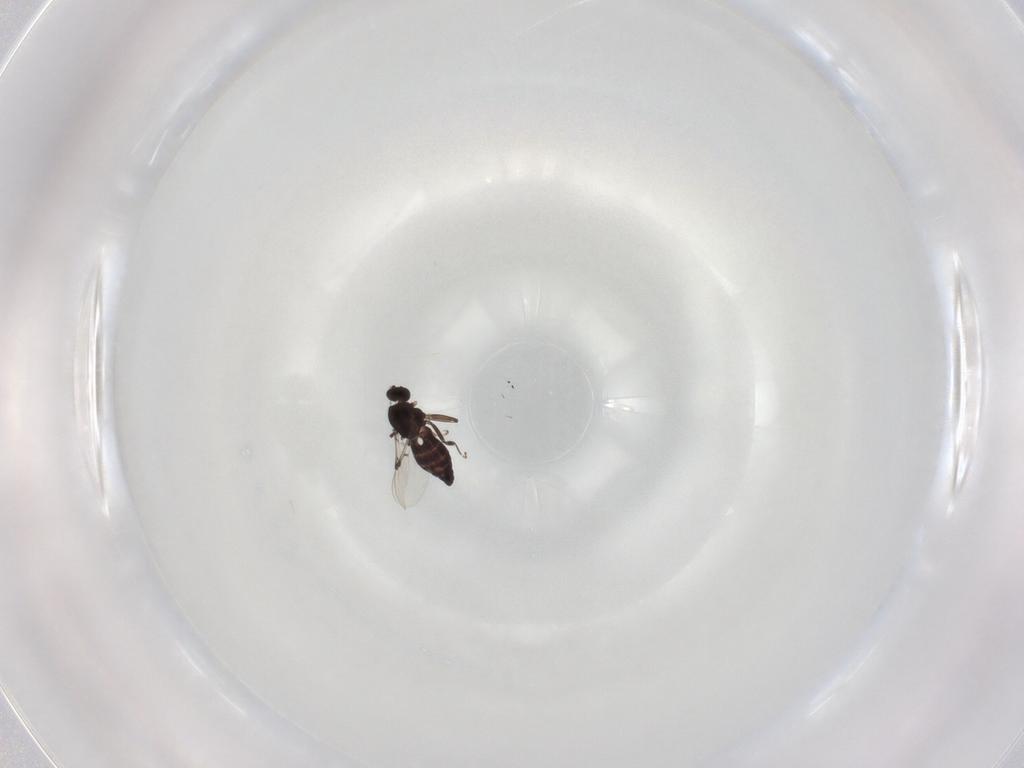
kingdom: Animalia
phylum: Arthropoda
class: Insecta
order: Diptera
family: Ceratopogonidae
